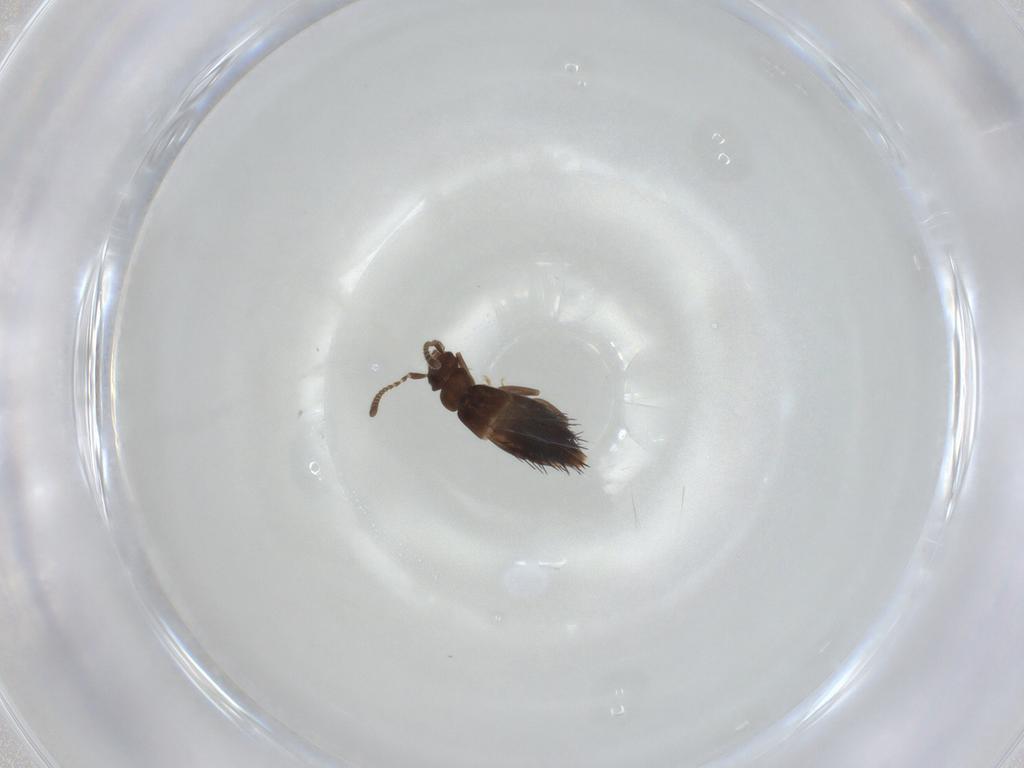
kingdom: Animalia
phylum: Arthropoda
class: Insecta
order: Coleoptera
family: Staphylinidae
